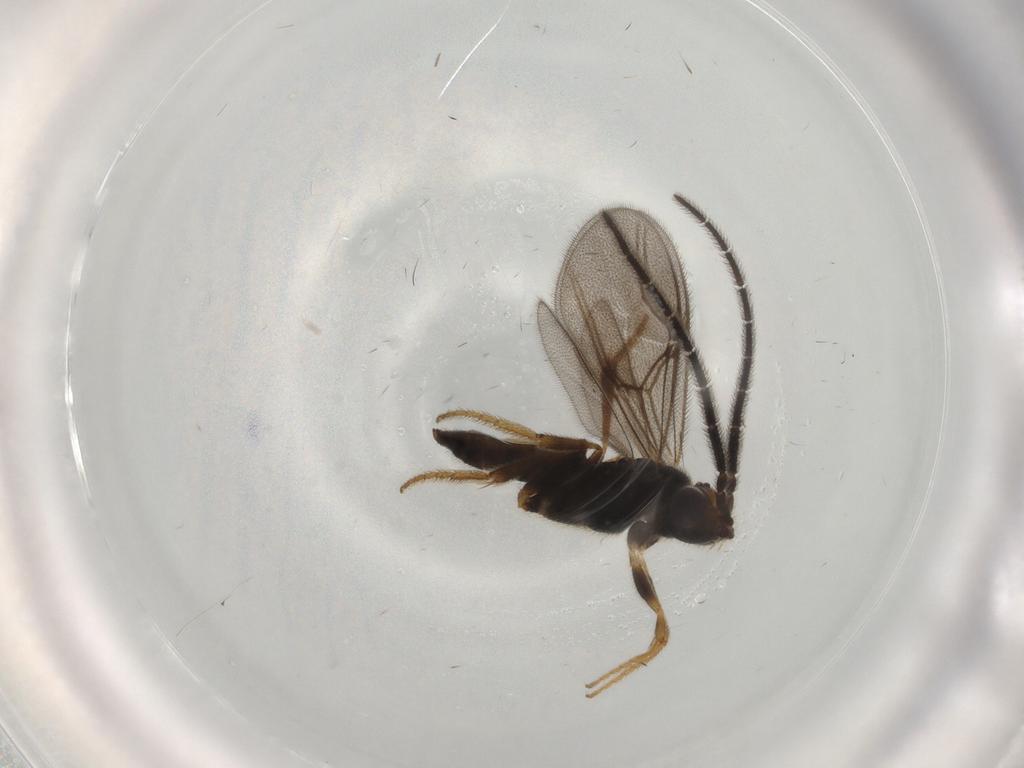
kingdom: Animalia
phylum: Arthropoda
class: Insecta
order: Hymenoptera
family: Dryinidae
